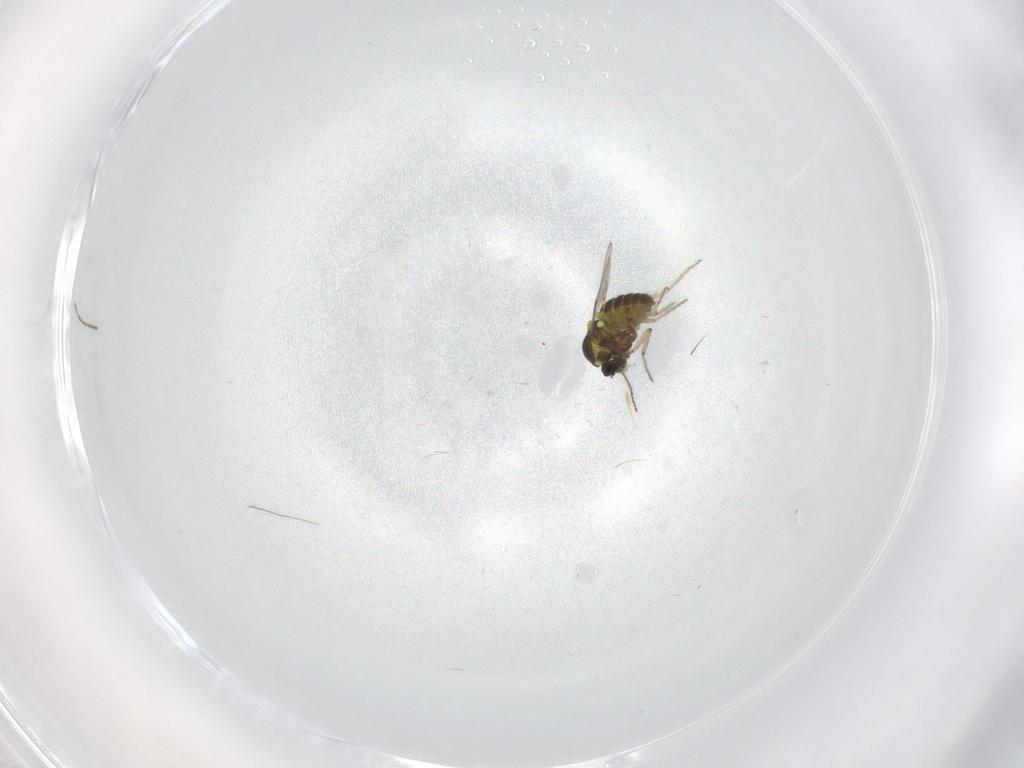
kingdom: Animalia
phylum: Arthropoda
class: Insecta
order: Diptera
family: Ceratopogonidae
